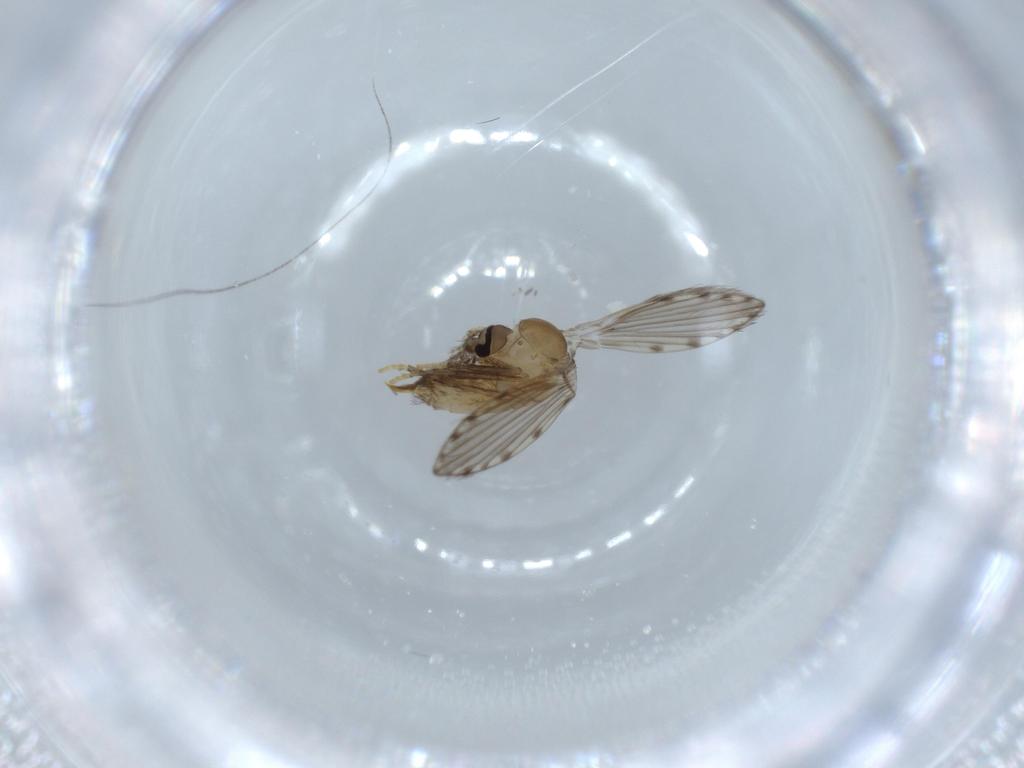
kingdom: Animalia
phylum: Arthropoda
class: Insecta
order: Diptera
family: Psychodidae
